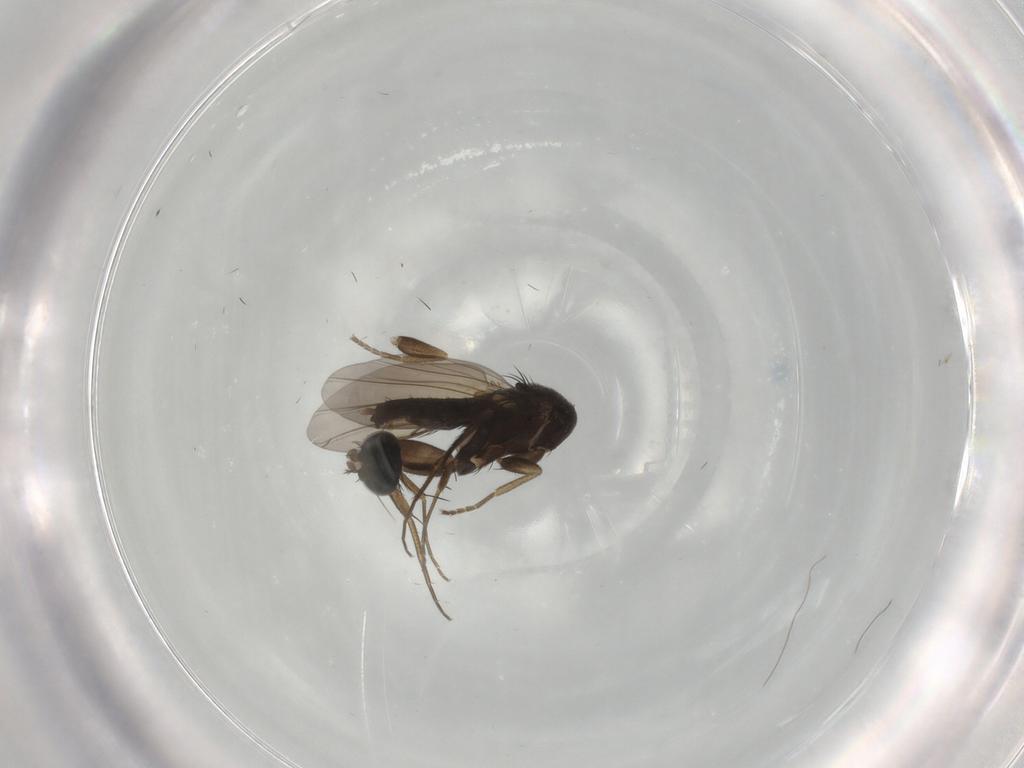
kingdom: Animalia
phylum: Arthropoda
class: Insecta
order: Diptera
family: Phoridae
